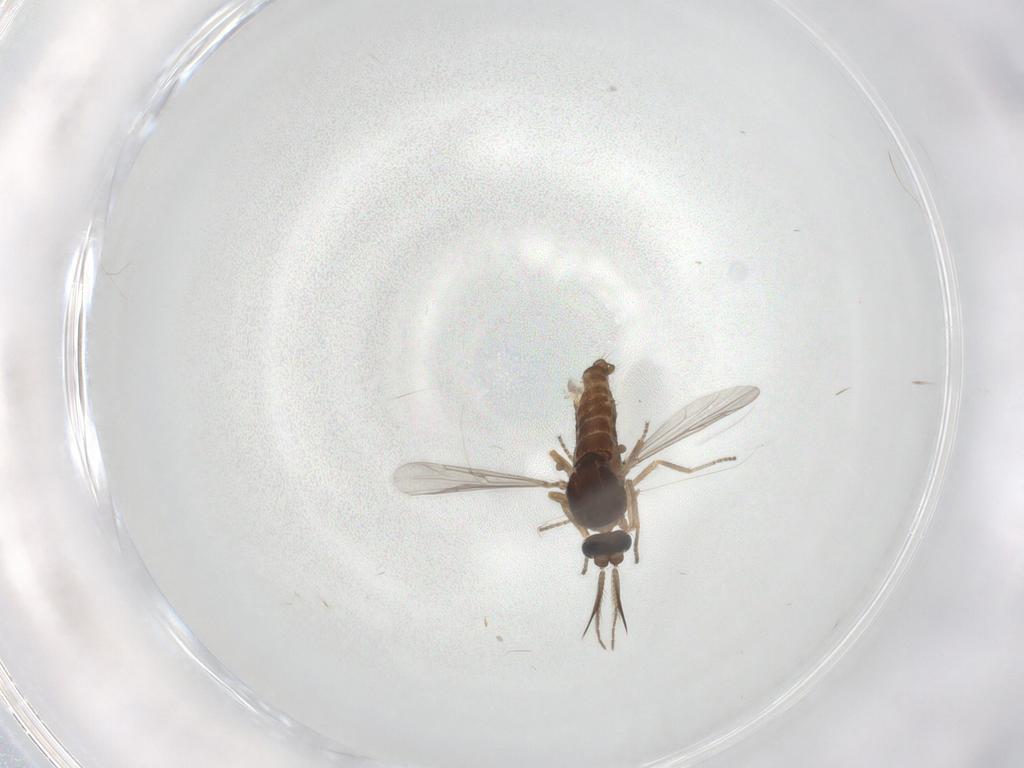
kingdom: Animalia
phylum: Arthropoda
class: Insecta
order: Diptera
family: Ceratopogonidae
